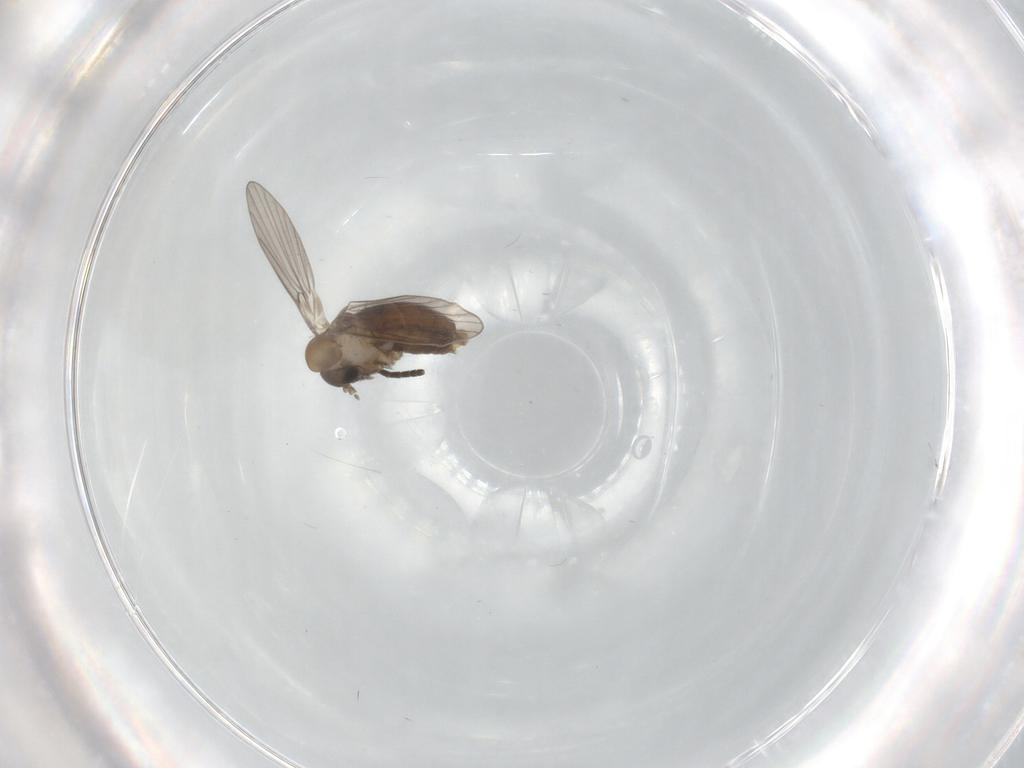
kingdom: Animalia
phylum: Arthropoda
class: Insecta
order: Diptera
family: Psychodidae
